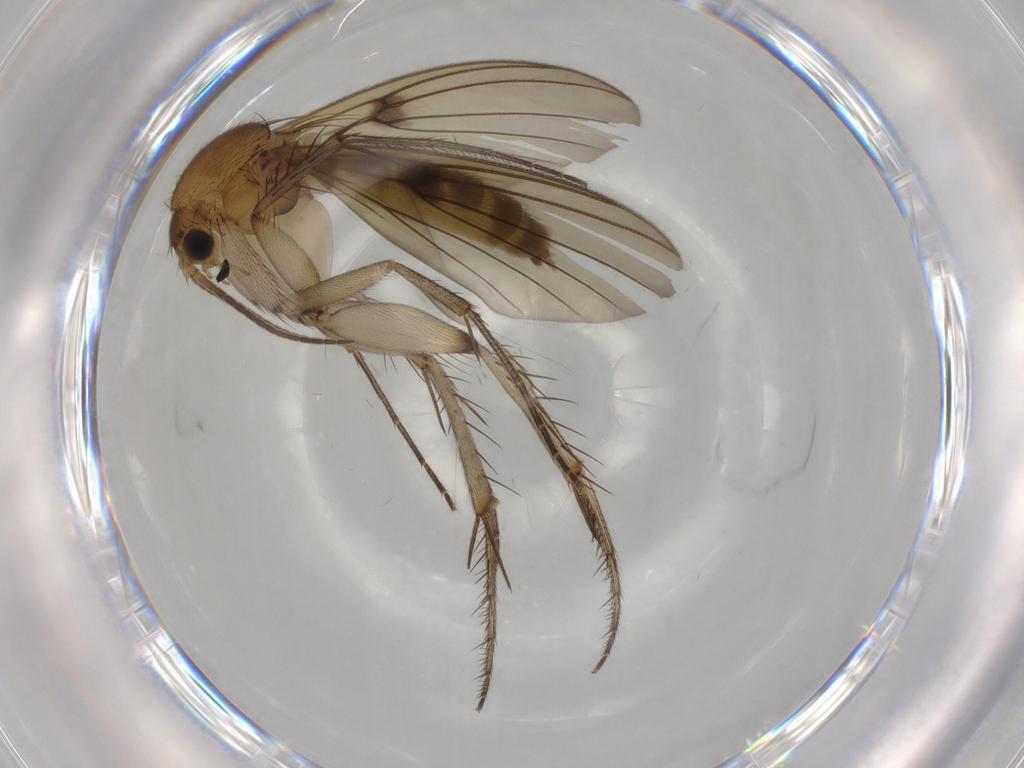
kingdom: Animalia
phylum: Arthropoda
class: Insecta
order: Diptera
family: Mycetophilidae
